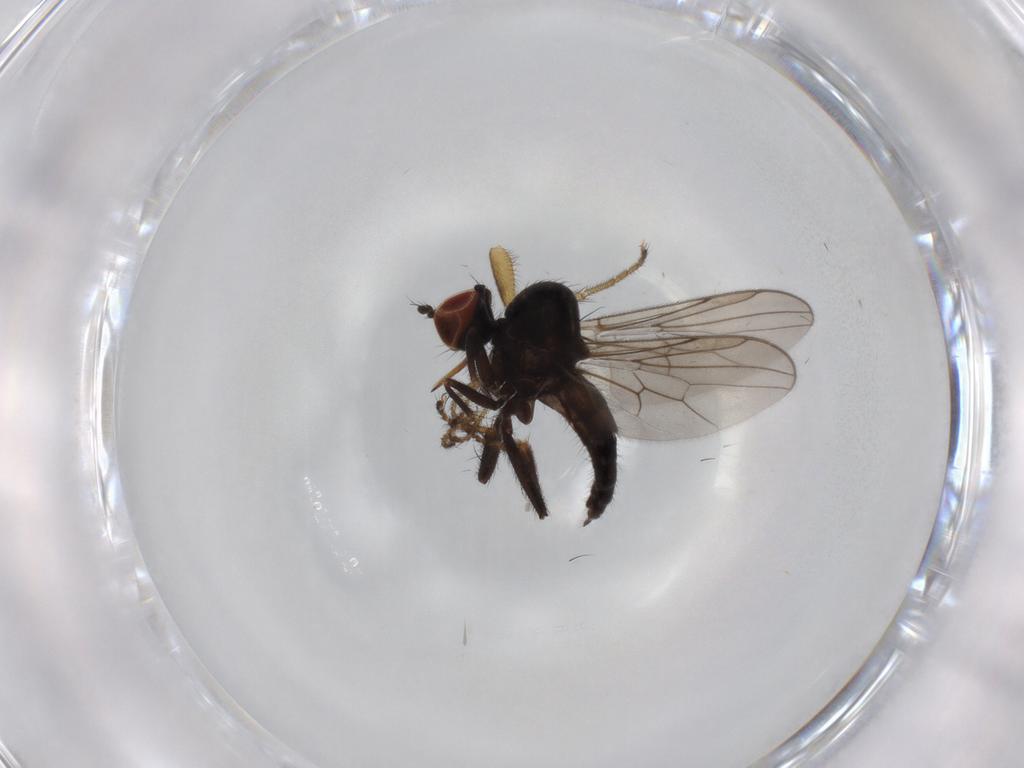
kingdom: Animalia
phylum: Arthropoda
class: Insecta
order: Diptera
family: Hybotidae
